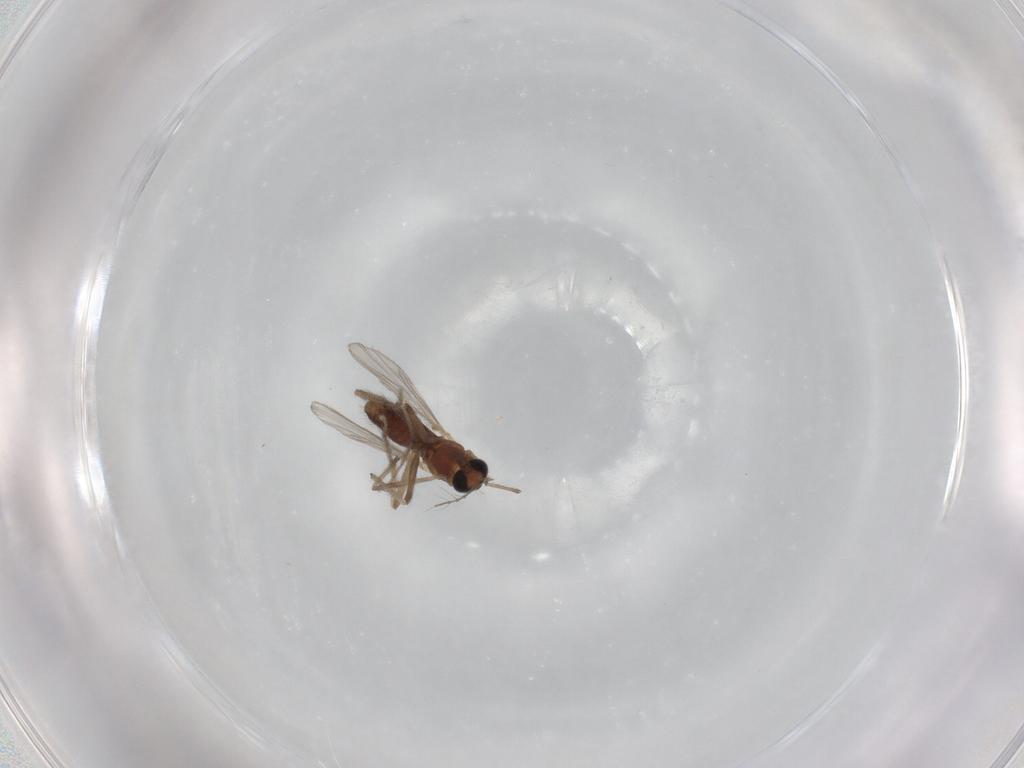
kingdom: Animalia
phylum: Arthropoda
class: Insecta
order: Diptera
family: Chironomidae
